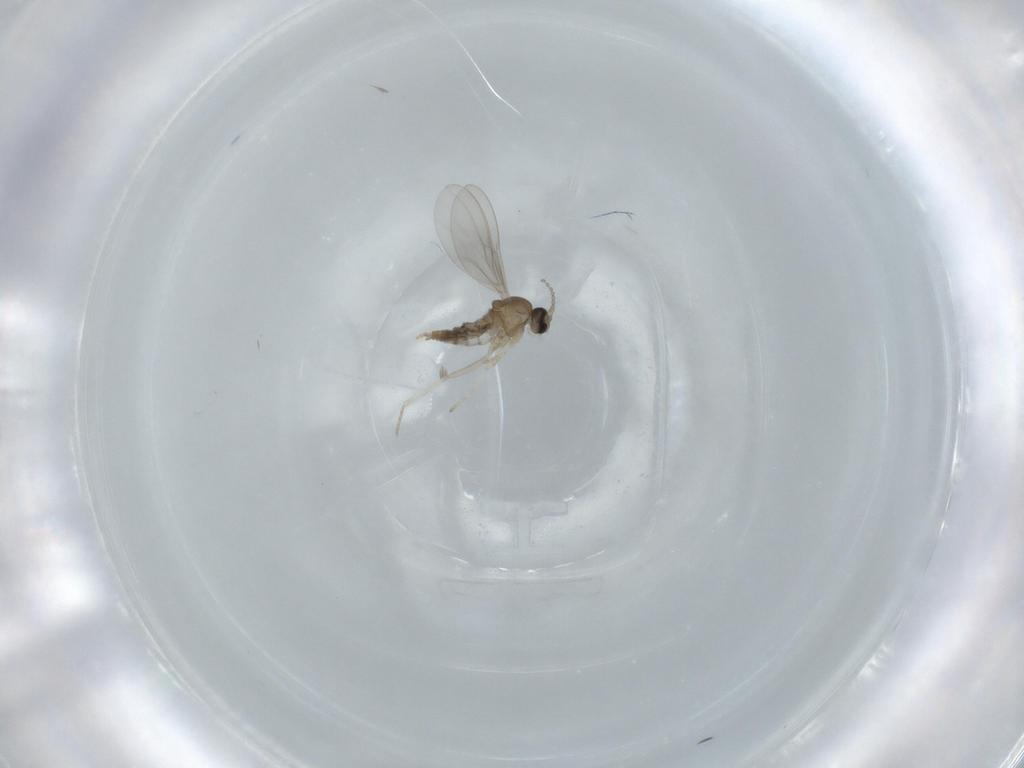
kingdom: Animalia
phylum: Arthropoda
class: Insecta
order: Diptera
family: Cecidomyiidae
